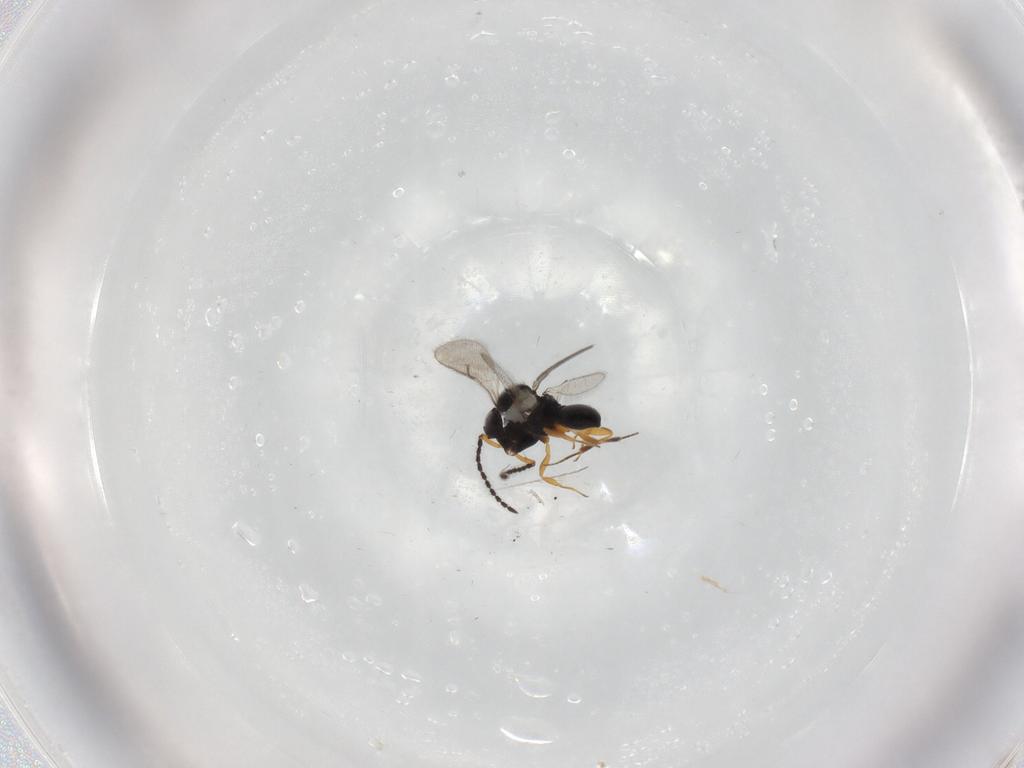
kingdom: Animalia
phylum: Arthropoda
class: Insecta
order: Hymenoptera
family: Scelionidae
